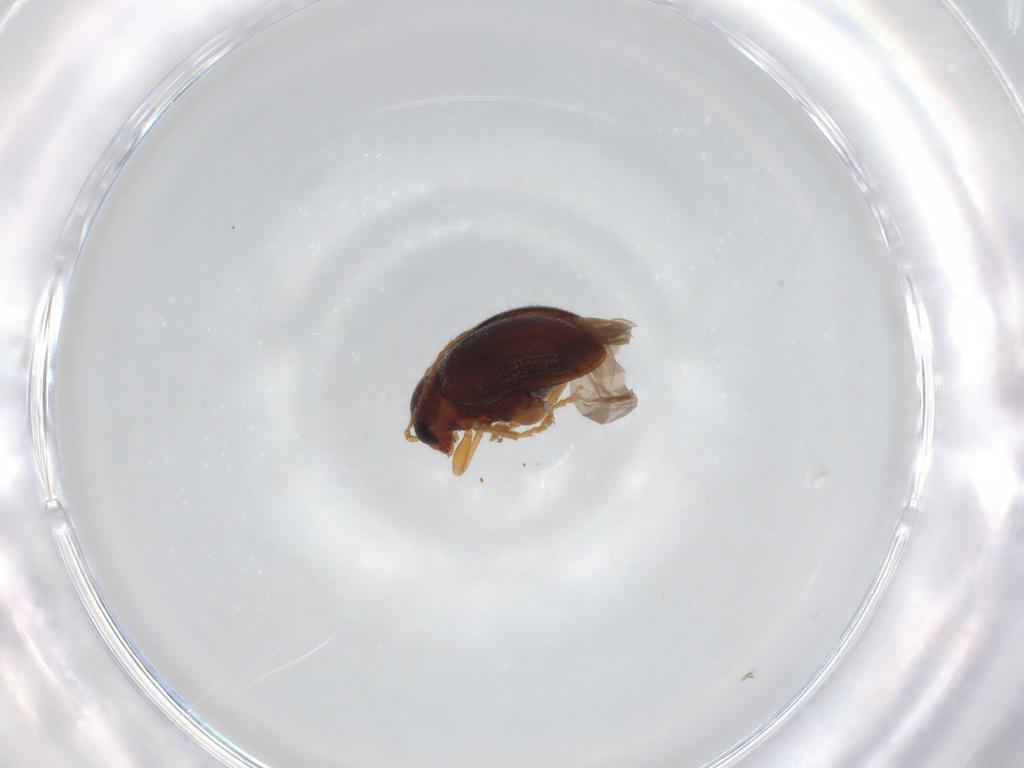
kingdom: Animalia
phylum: Arthropoda
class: Insecta
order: Coleoptera
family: Chrysomelidae
